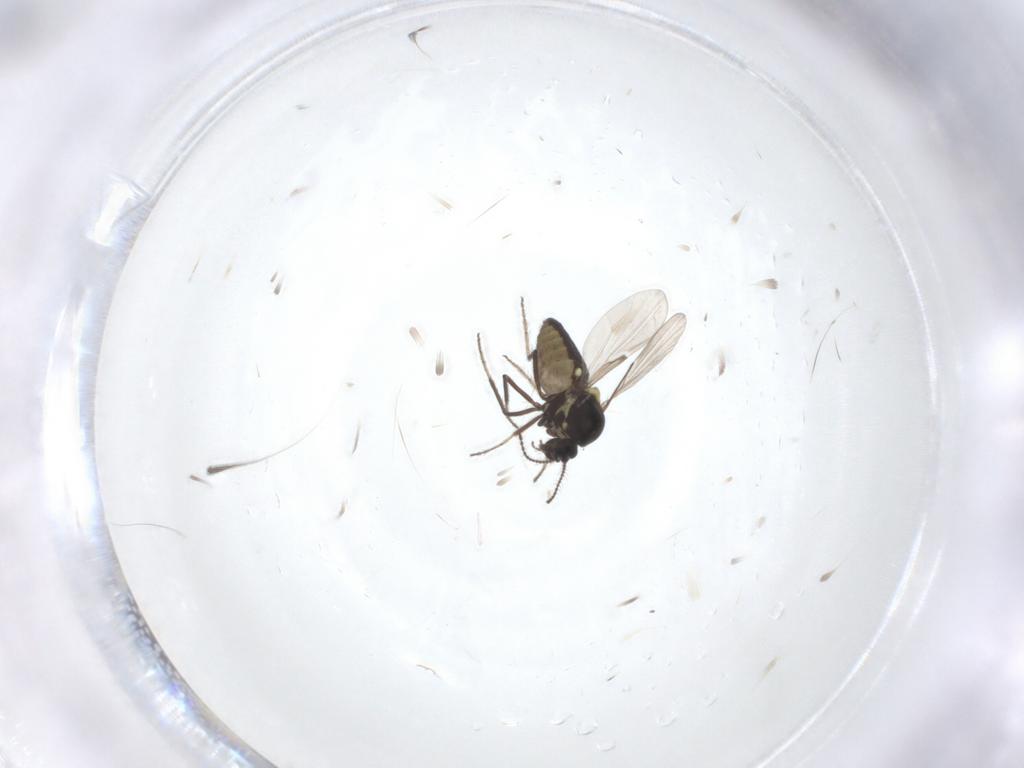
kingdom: Animalia
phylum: Arthropoda
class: Insecta
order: Diptera
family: Ceratopogonidae
